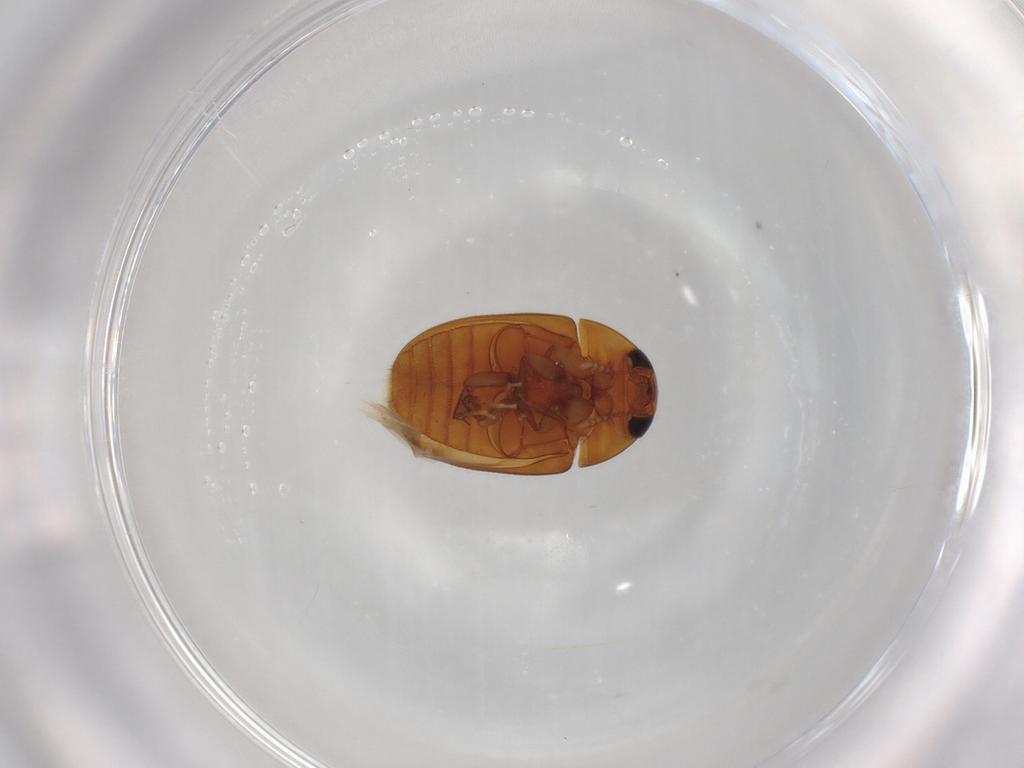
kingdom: Animalia
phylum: Arthropoda
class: Insecta
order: Coleoptera
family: Phalacridae
